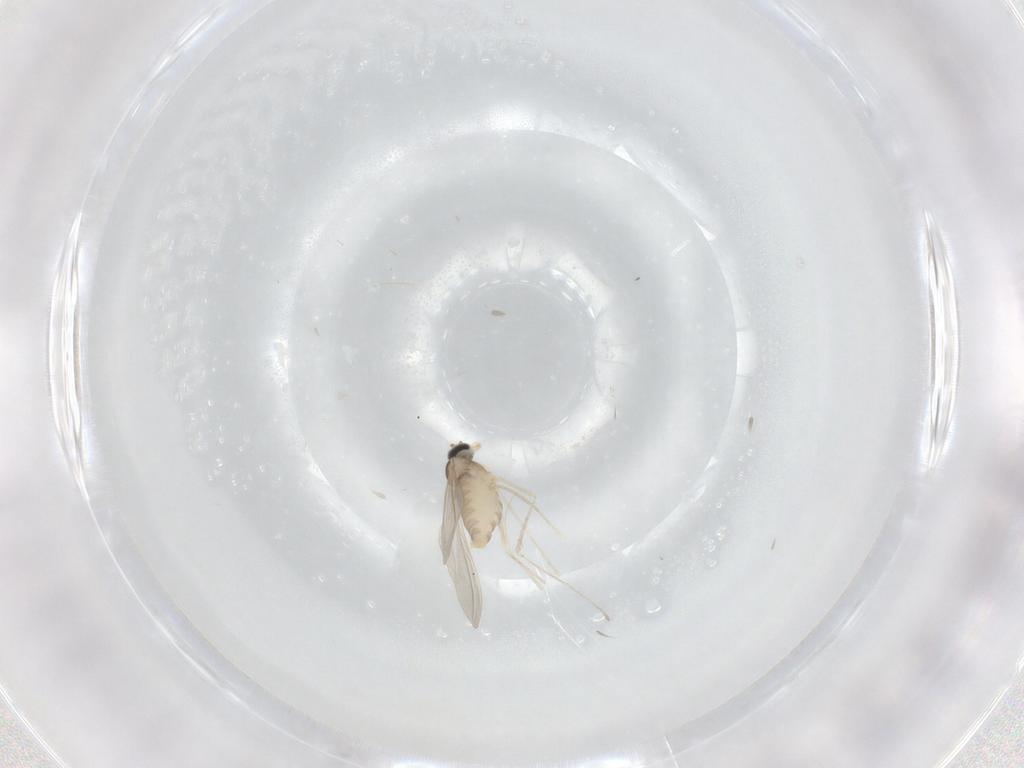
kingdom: Animalia
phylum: Arthropoda
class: Insecta
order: Diptera
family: Cecidomyiidae
